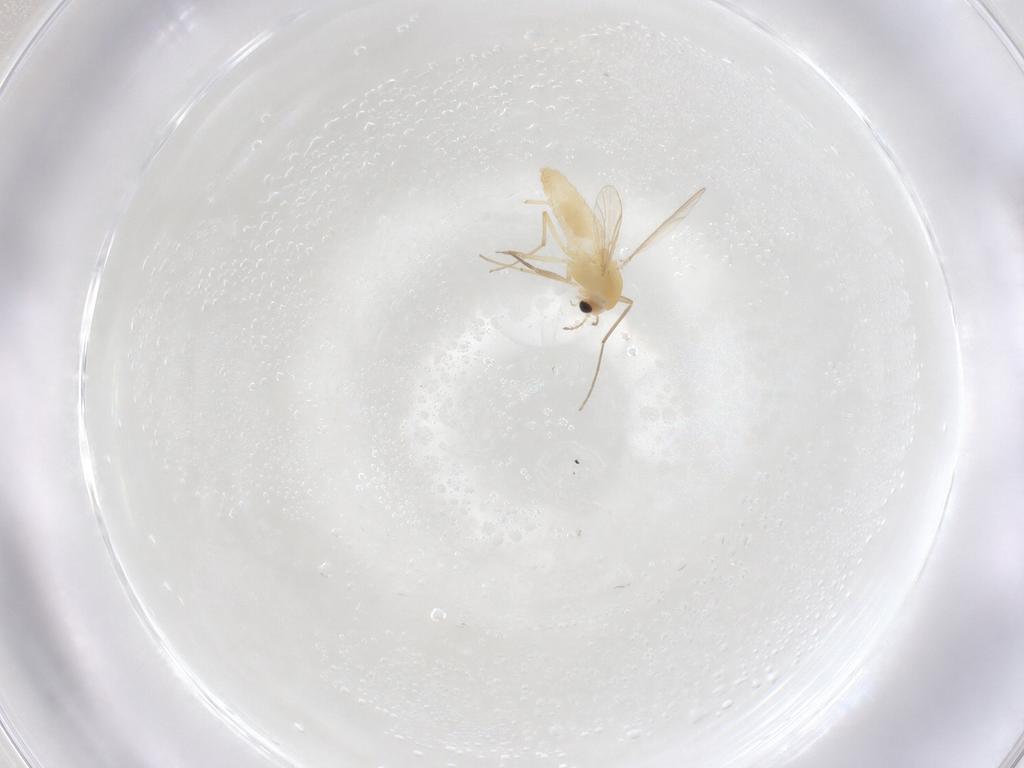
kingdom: Animalia
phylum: Arthropoda
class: Insecta
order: Diptera
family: Chironomidae
